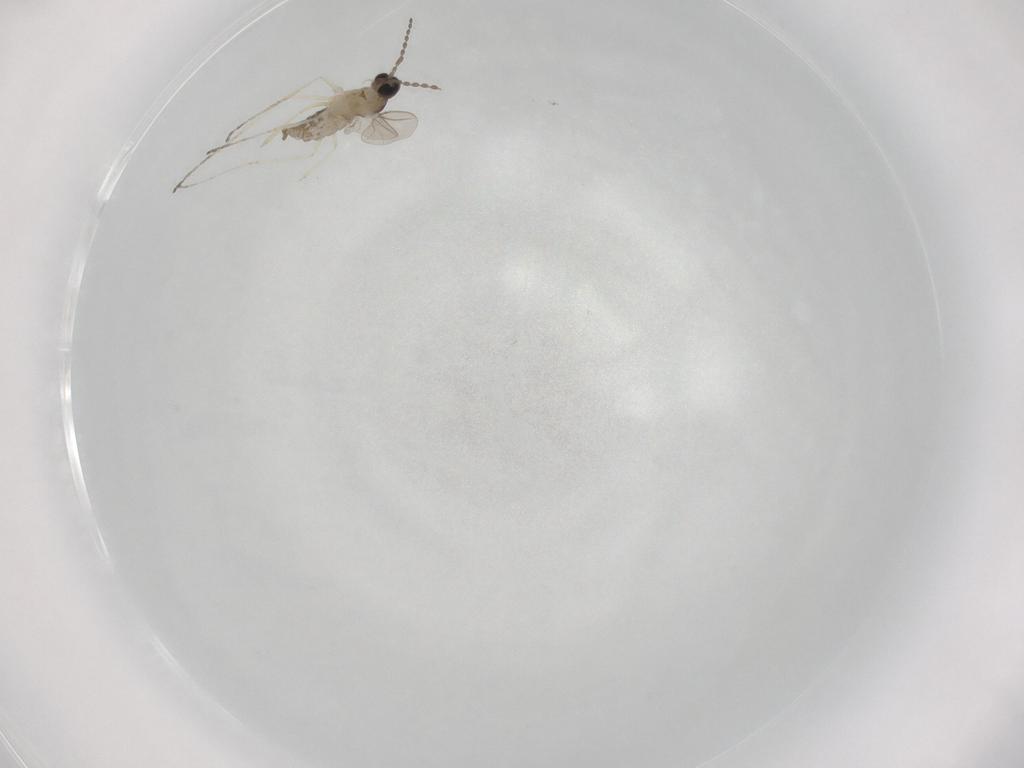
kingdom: Animalia
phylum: Arthropoda
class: Insecta
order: Diptera
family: Cecidomyiidae
